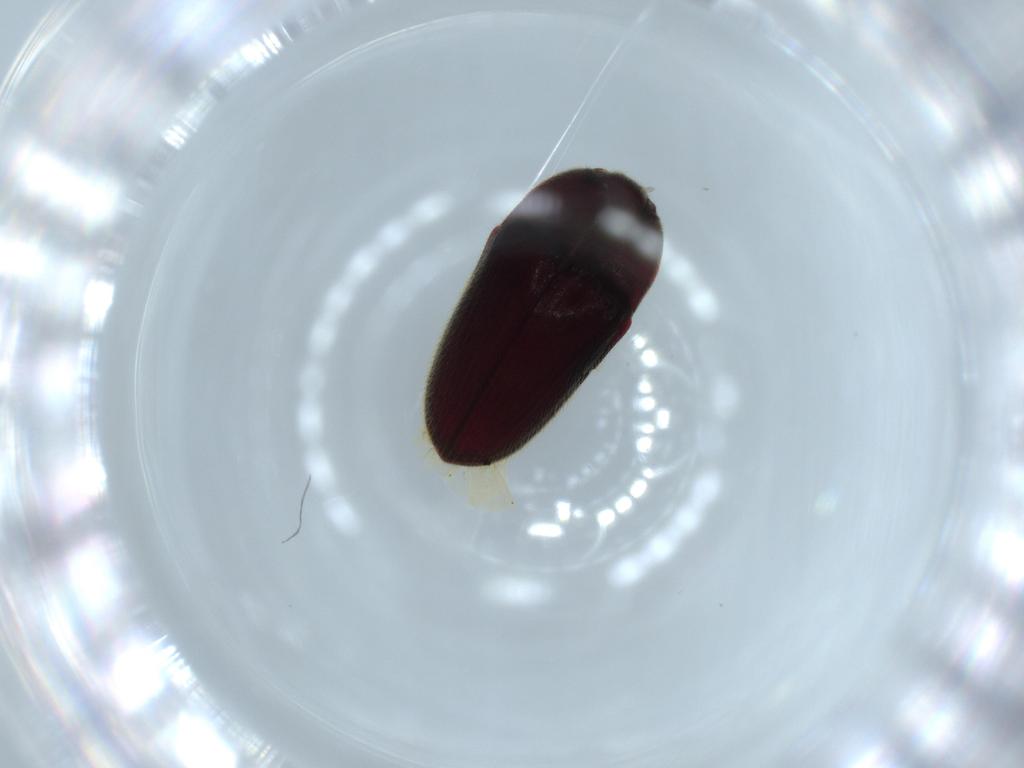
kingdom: Animalia
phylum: Arthropoda
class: Insecta
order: Coleoptera
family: Throscidae
